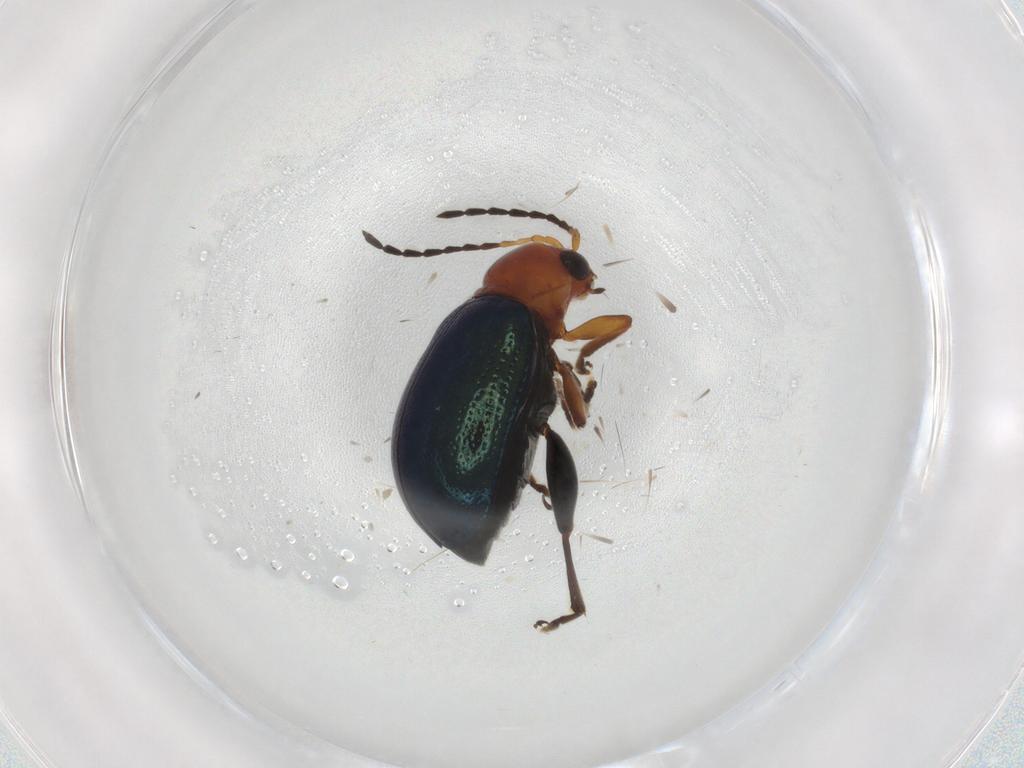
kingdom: Animalia
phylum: Arthropoda
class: Insecta
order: Coleoptera
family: Chrysomelidae
